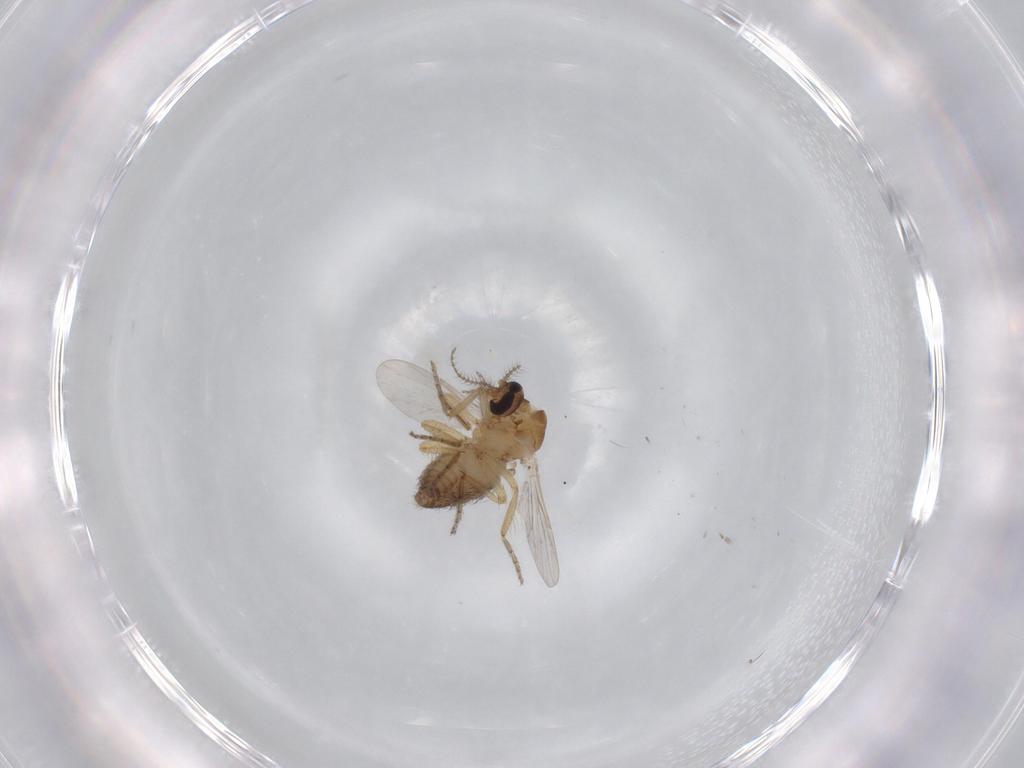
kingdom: Animalia
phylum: Arthropoda
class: Insecta
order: Diptera
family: Ceratopogonidae
